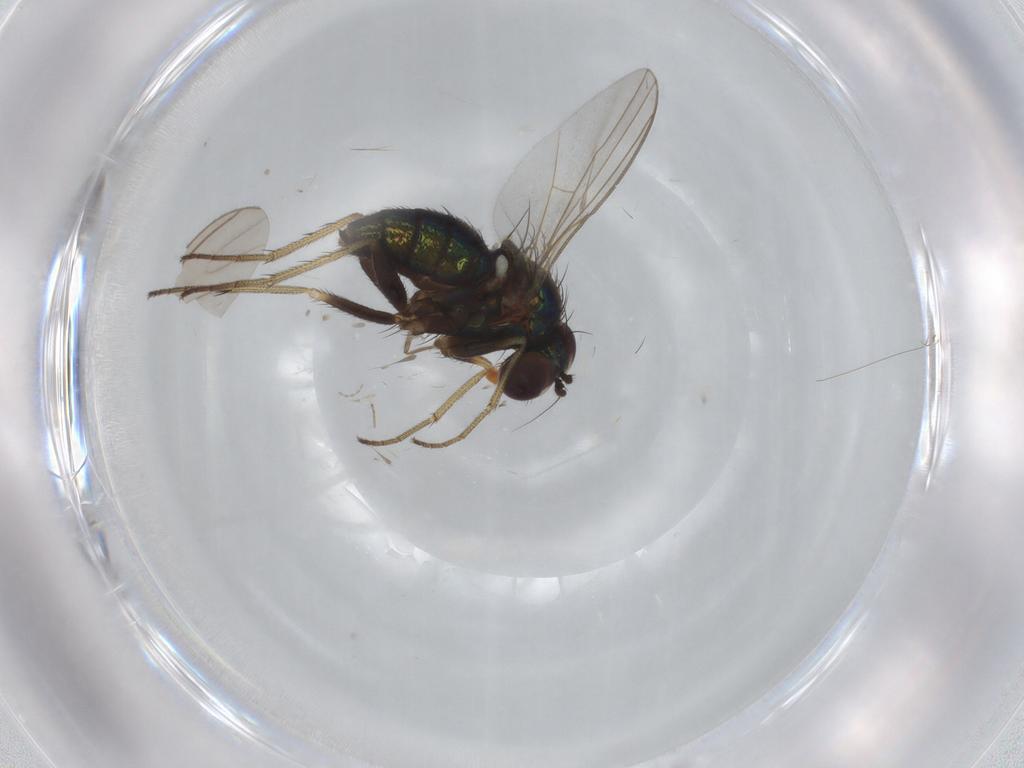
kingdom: Animalia
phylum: Arthropoda
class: Insecta
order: Diptera
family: Dolichopodidae
